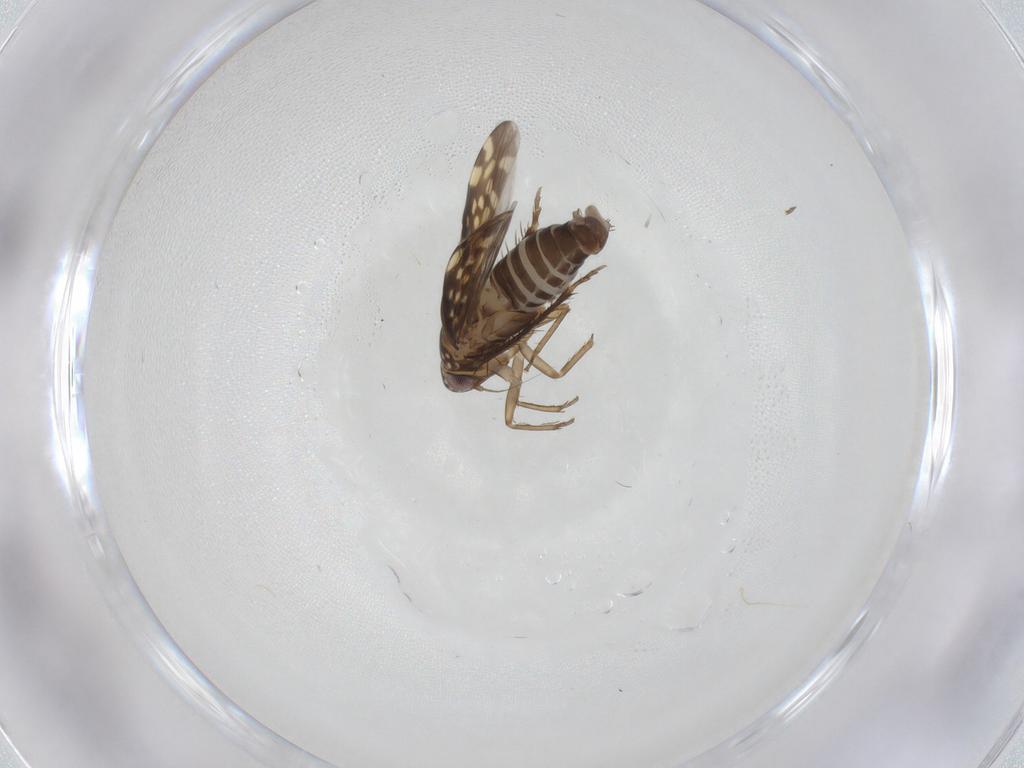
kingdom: Animalia
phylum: Arthropoda
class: Insecta
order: Hemiptera
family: Cicadellidae
